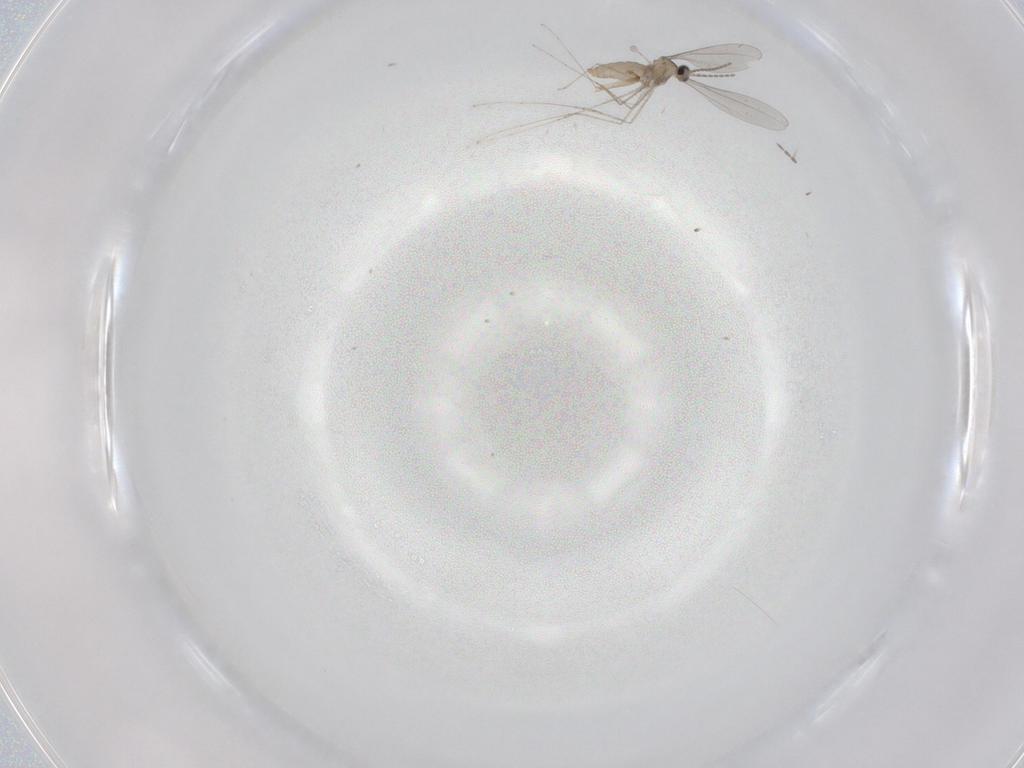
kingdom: Animalia
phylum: Arthropoda
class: Insecta
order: Diptera
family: Cecidomyiidae
